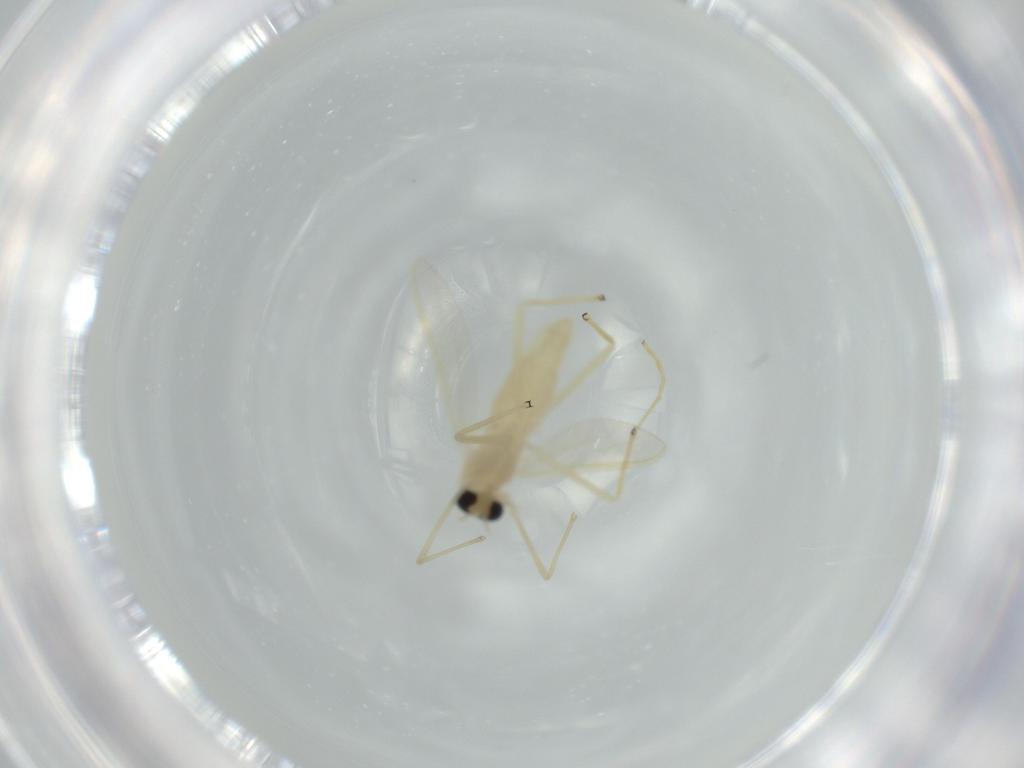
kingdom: Animalia
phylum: Arthropoda
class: Insecta
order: Diptera
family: Chironomidae
